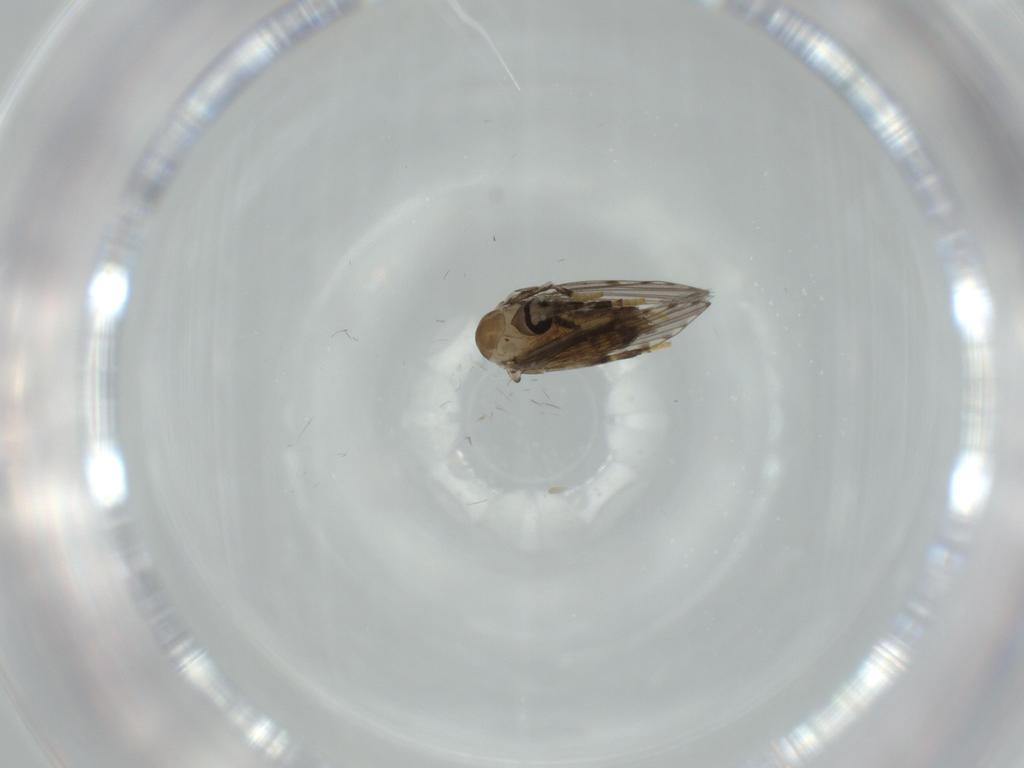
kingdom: Animalia
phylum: Arthropoda
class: Insecta
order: Diptera
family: Psychodidae
